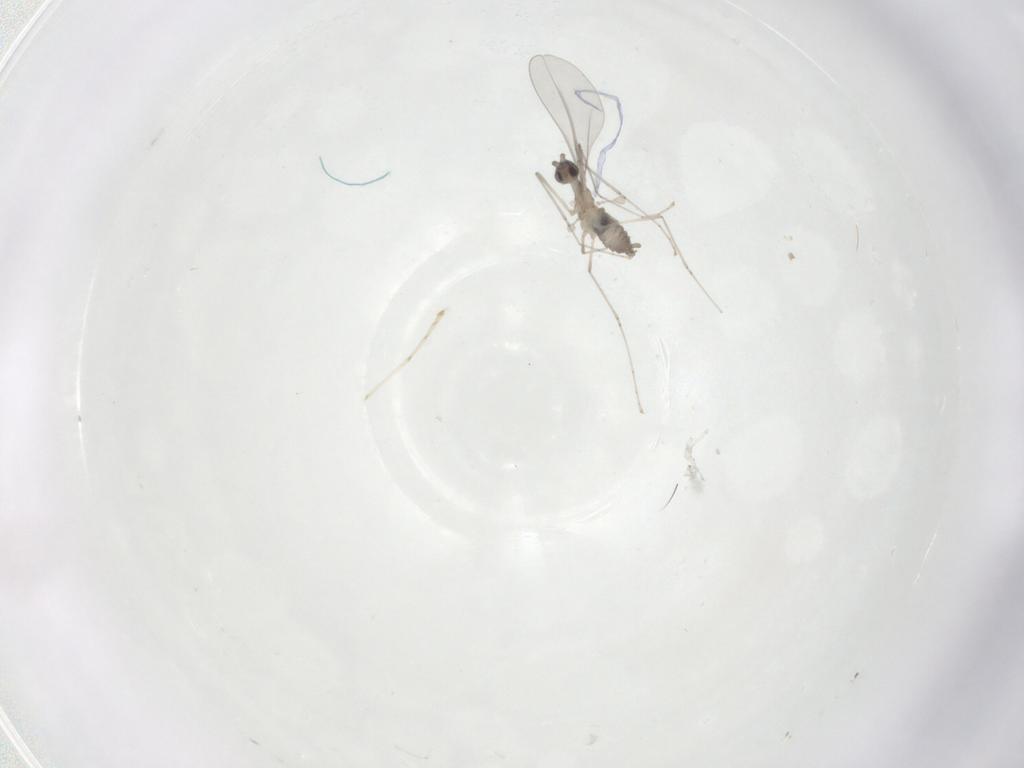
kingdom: Animalia
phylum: Arthropoda
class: Insecta
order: Diptera
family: Cecidomyiidae
